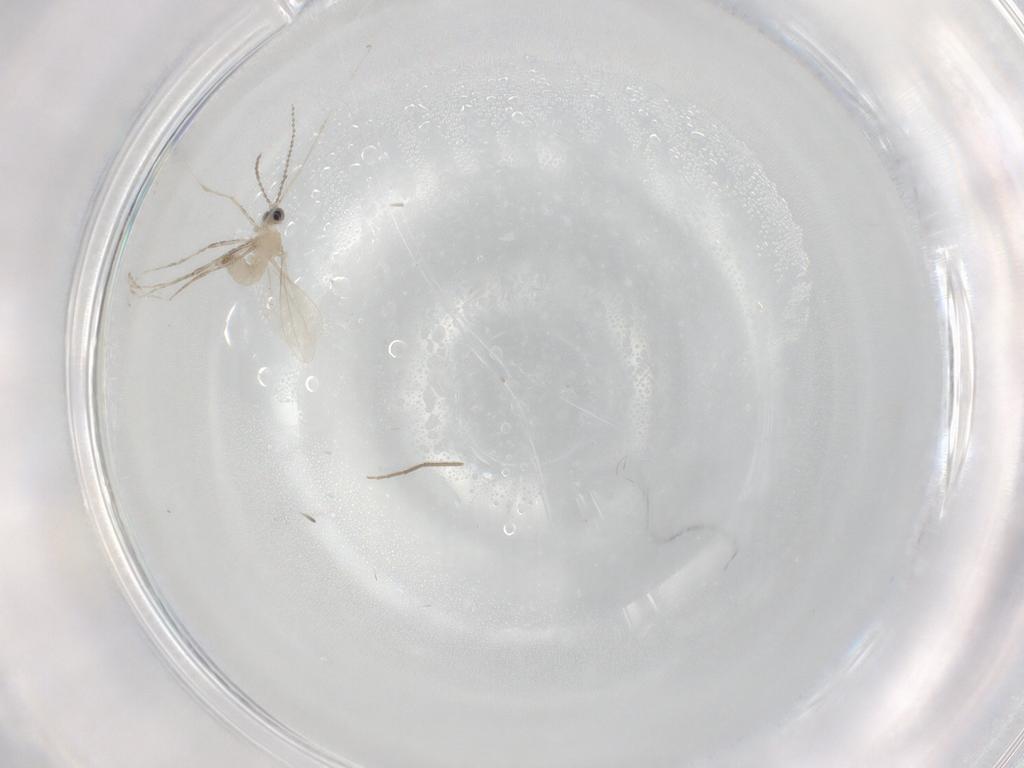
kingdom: Animalia
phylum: Arthropoda
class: Insecta
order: Diptera
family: Chironomidae
